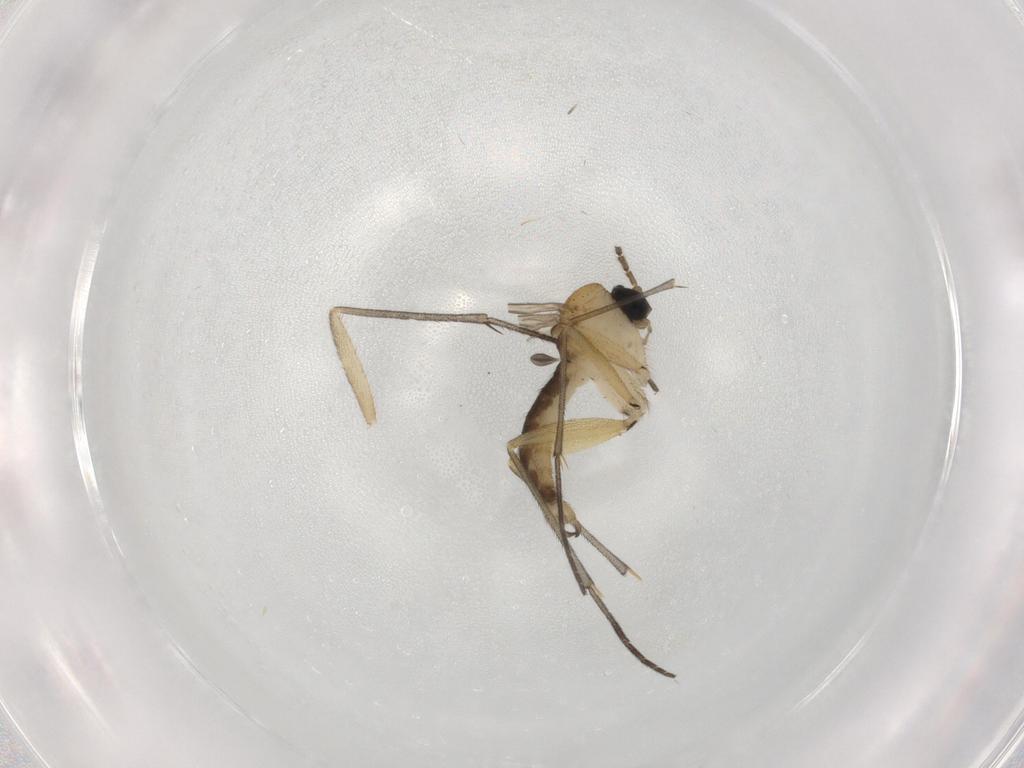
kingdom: Animalia
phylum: Arthropoda
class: Insecta
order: Diptera
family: Sciaridae
